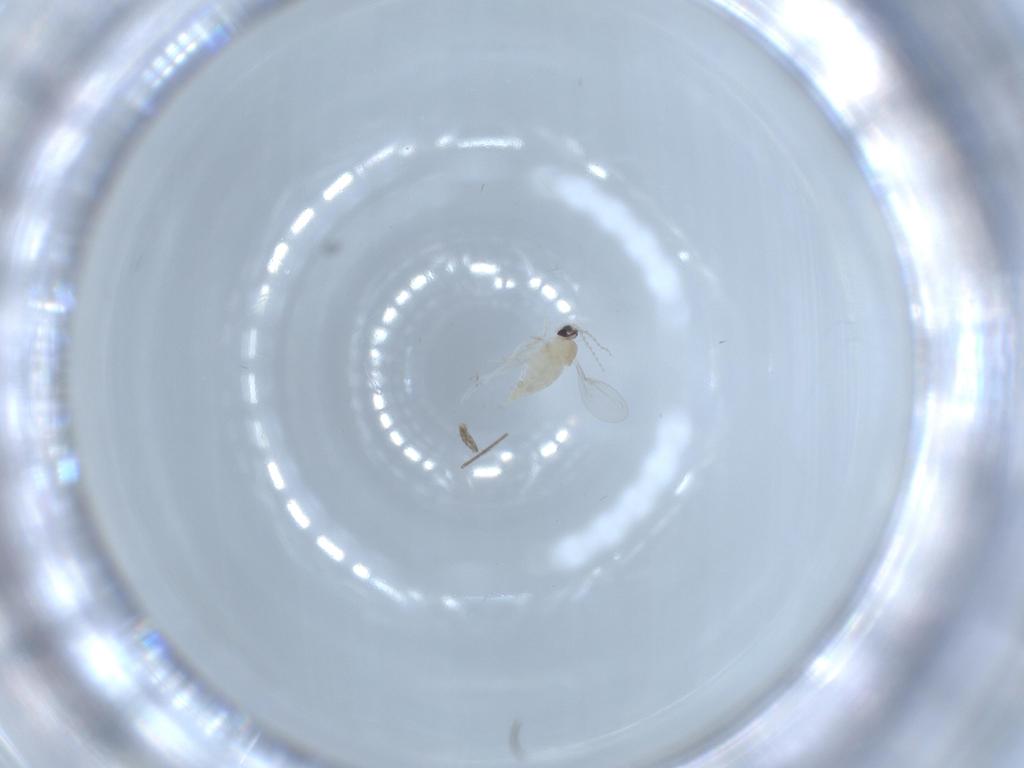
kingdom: Animalia
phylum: Arthropoda
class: Insecta
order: Diptera
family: Cecidomyiidae
